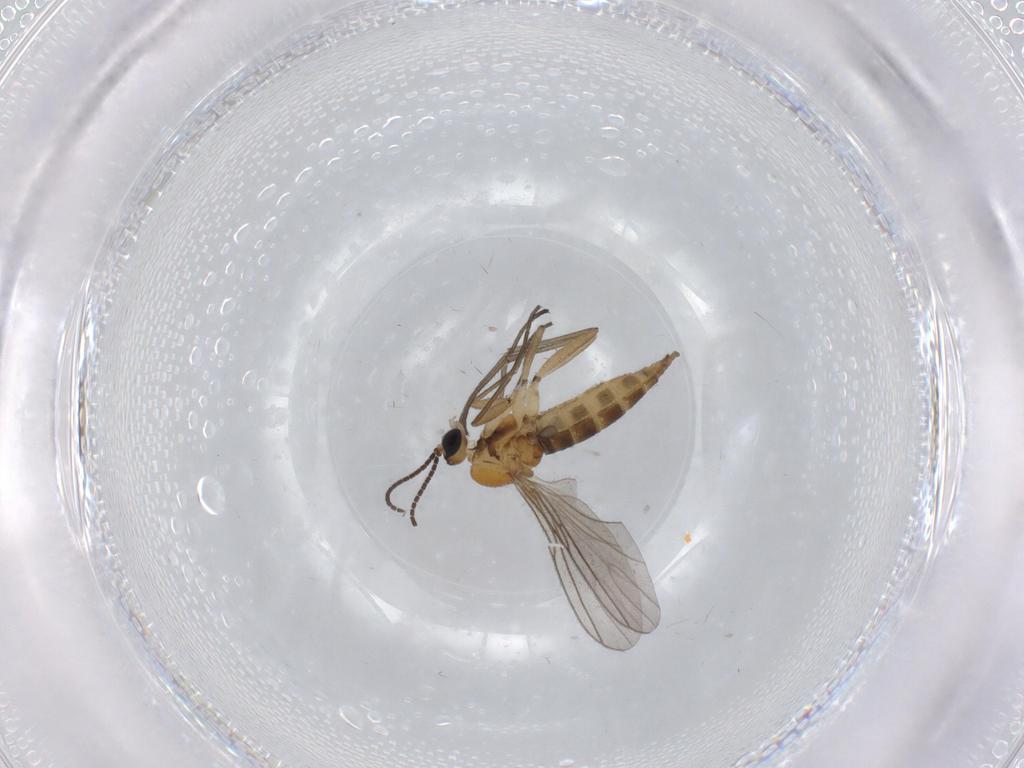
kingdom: Animalia
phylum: Arthropoda
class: Insecta
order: Diptera
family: Sciaridae
